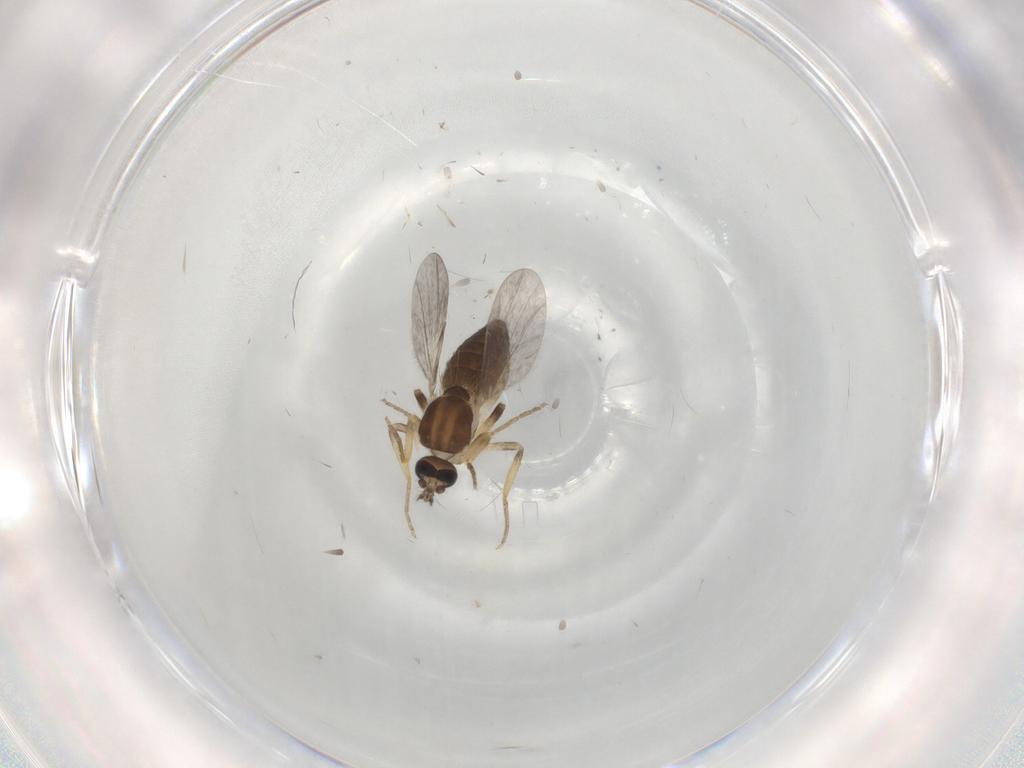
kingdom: Animalia
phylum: Arthropoda
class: Insecta
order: Diptera
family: Ceratopogonidae
